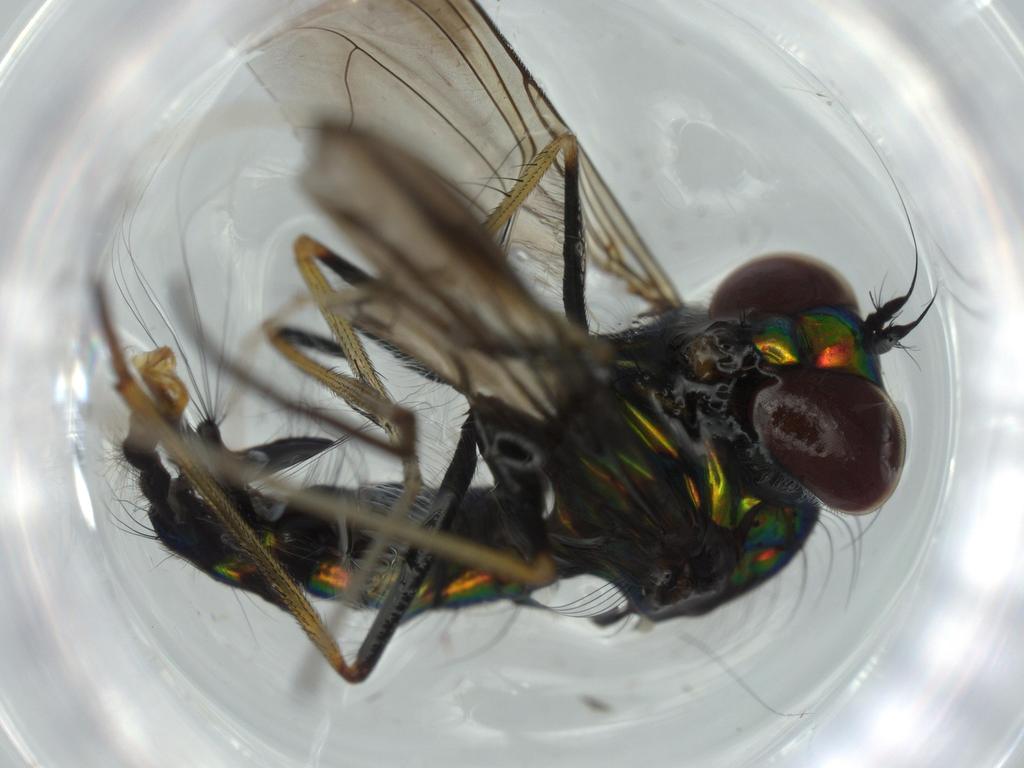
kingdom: Animalia
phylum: Arthropoda
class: Insecta
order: Diptera
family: Dolichopodidae
